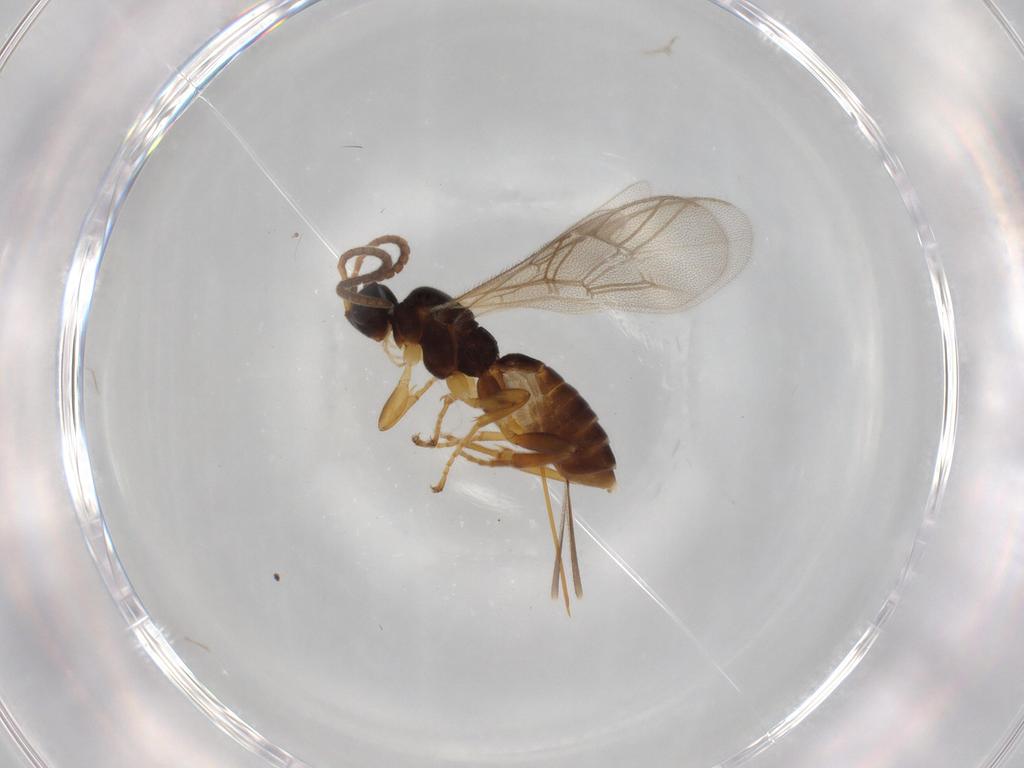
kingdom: Animalia
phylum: Arthropoda
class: Insecta
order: Hymenoptera
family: Ichneumonidae
